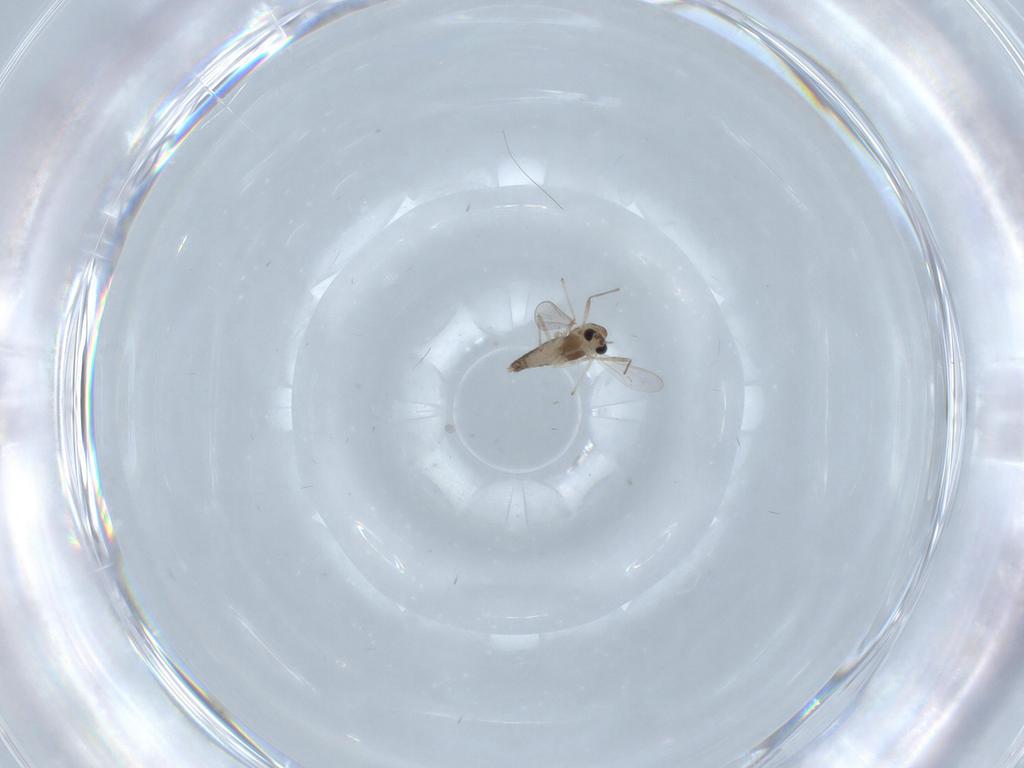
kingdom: Animalia
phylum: Arthropoda
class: Insecta
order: Diptera
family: Chironomidae
